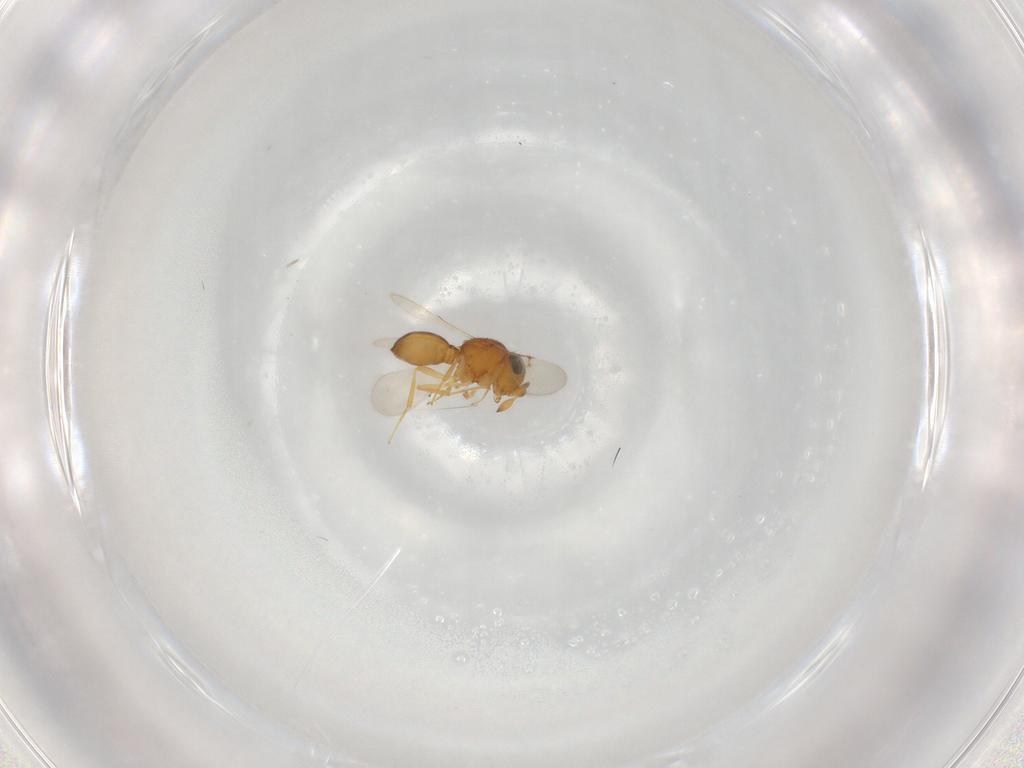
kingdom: Animalia
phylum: Arthropoda
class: Insecta
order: Hymenoptera
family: Scelionidae
